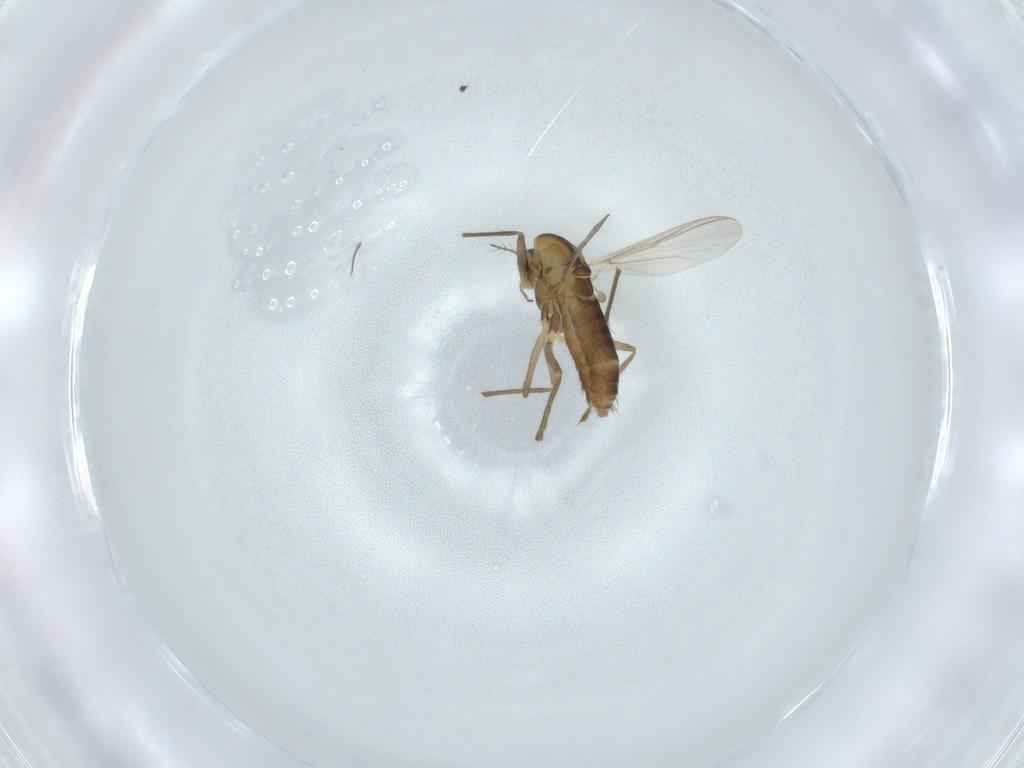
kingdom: Animalia
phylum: Arthropoda
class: Insecta
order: Diptera
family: Chironomidae
